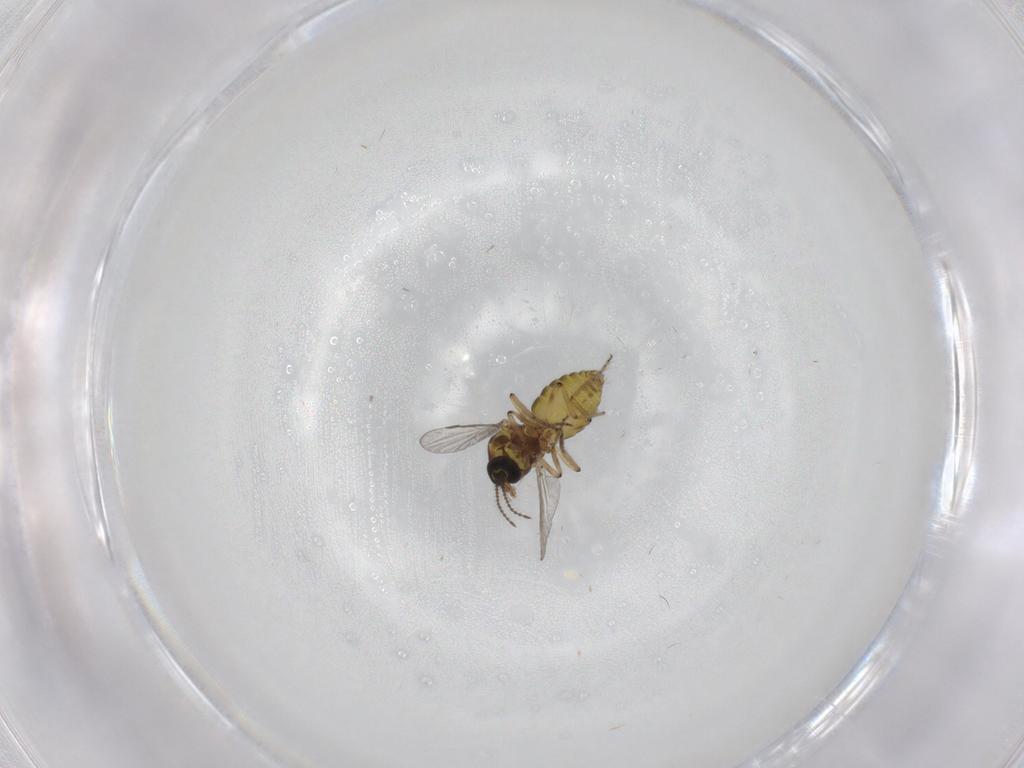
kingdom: Animalia
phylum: Arthropoda
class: Insecta
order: Diptera
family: Ceratopogonidae
